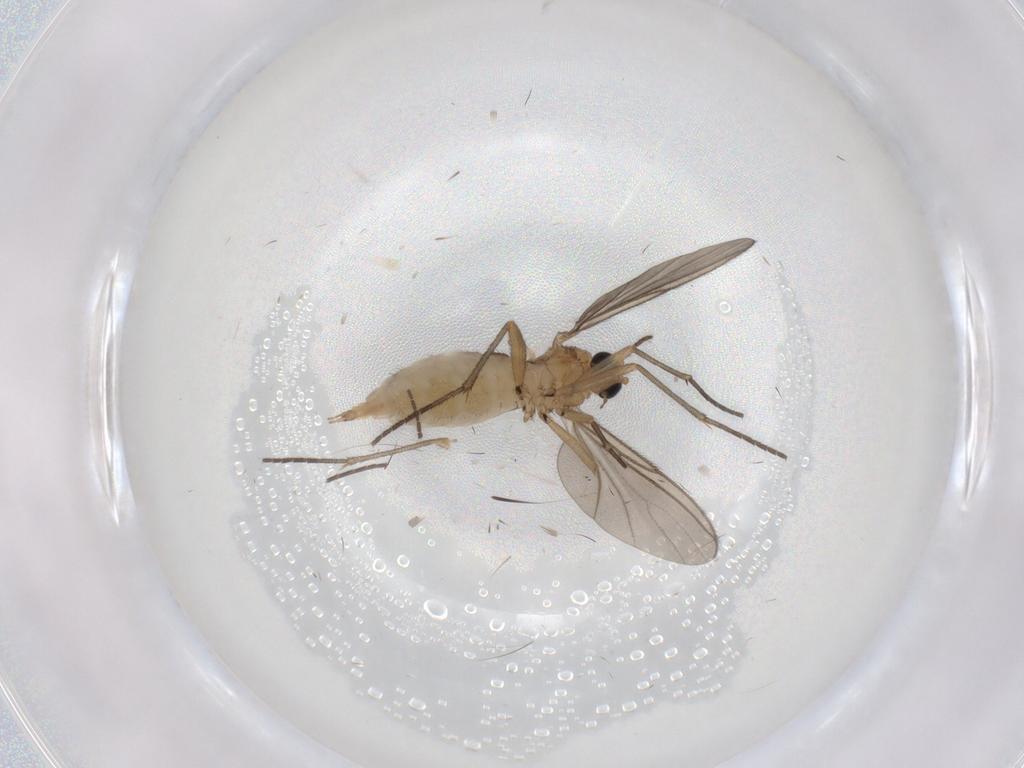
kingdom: Animalia
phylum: Arthropoda
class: Insecta
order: Diptera
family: Sciaridae
